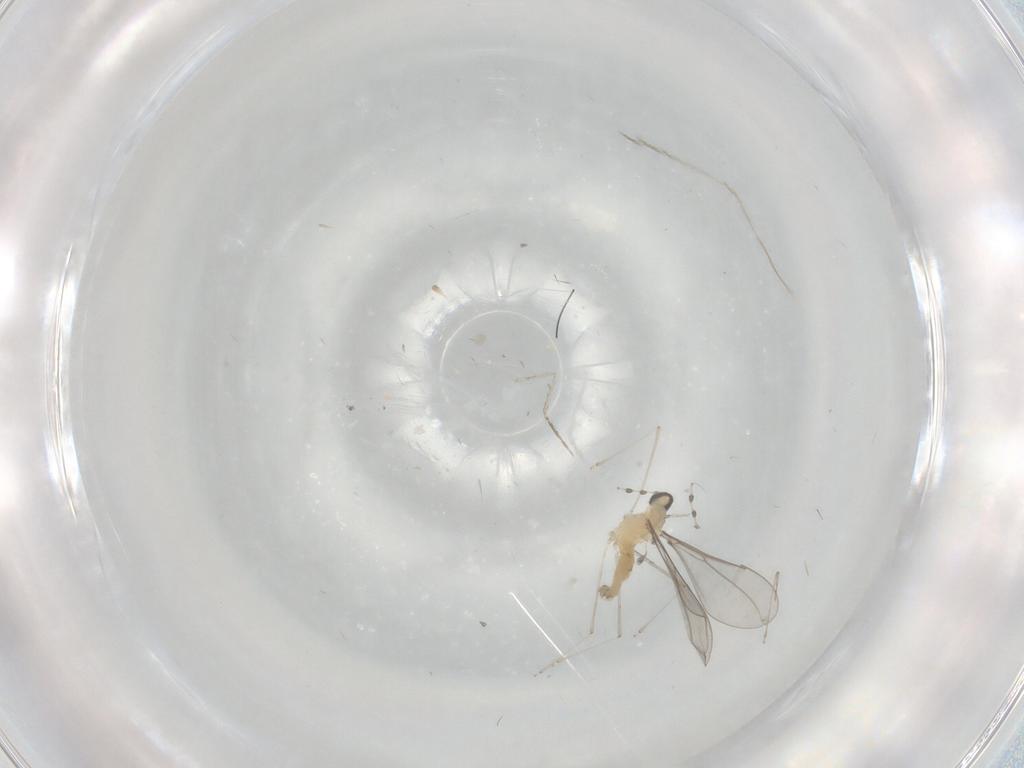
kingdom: Animalia
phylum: Arthropoda
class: Insecta
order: Diptera
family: Cecidomyiidae
